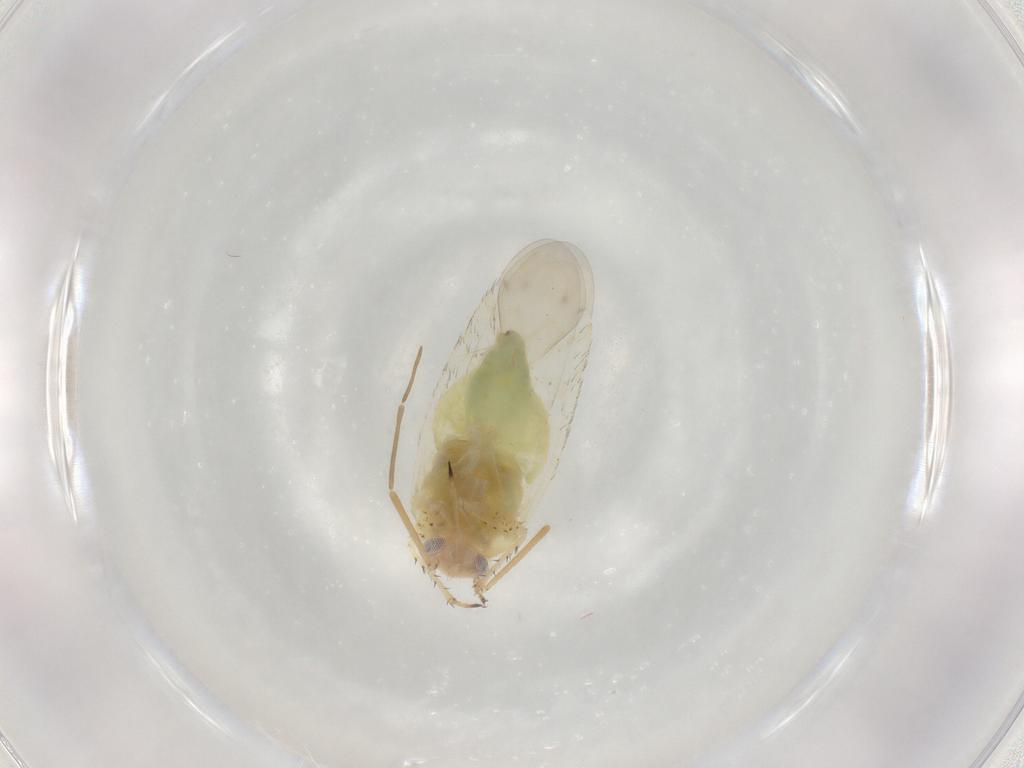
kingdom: Animalia
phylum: Arthropoda
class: Insecta
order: Hemiptera
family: Miridae
